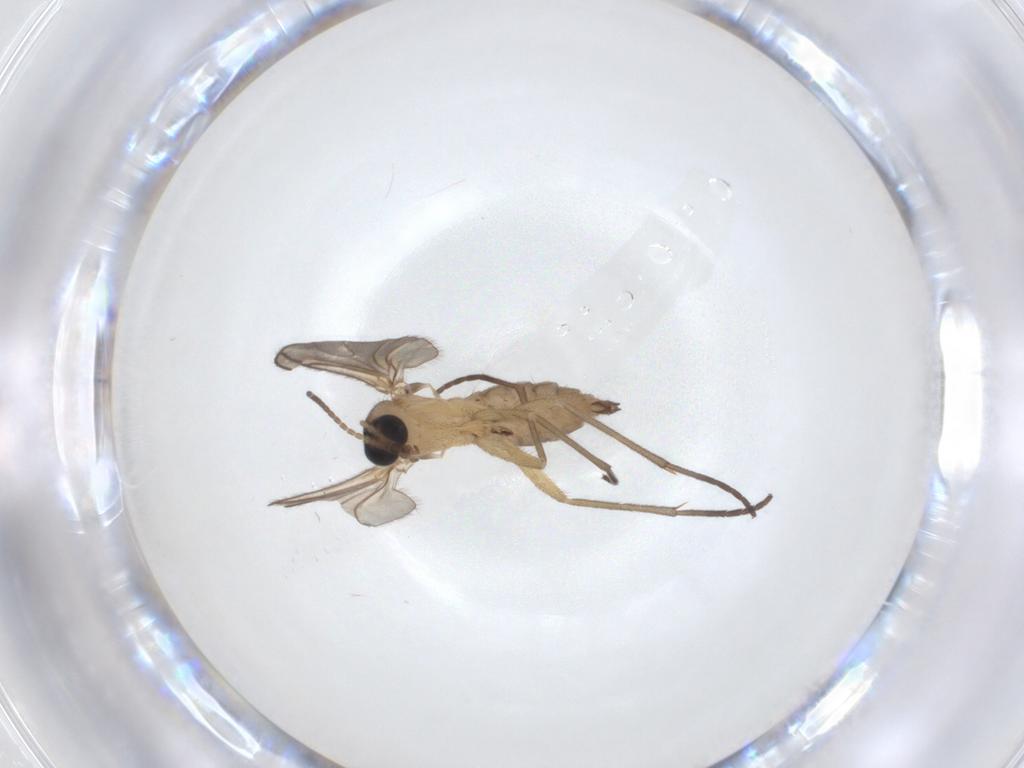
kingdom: Animalia
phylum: Arthropoda
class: Insecta
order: Diptera
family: Sciaridae
